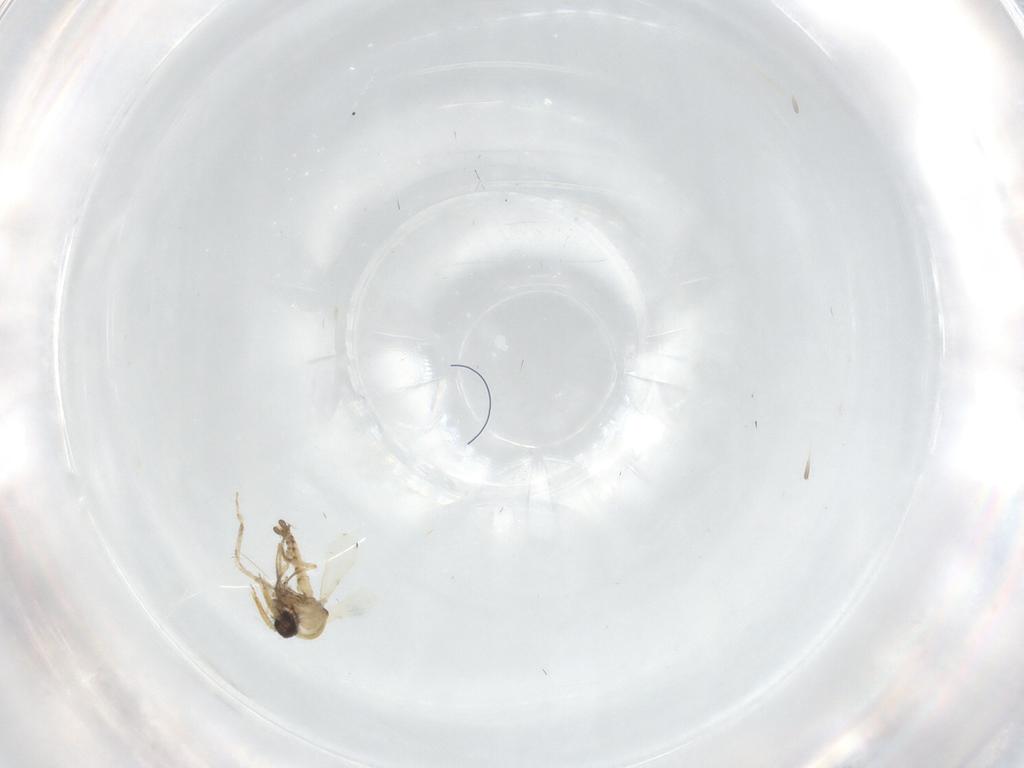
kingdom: Animalia
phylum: Arthropoda
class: Insecta
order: Diptera
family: Ceratopogonidae
